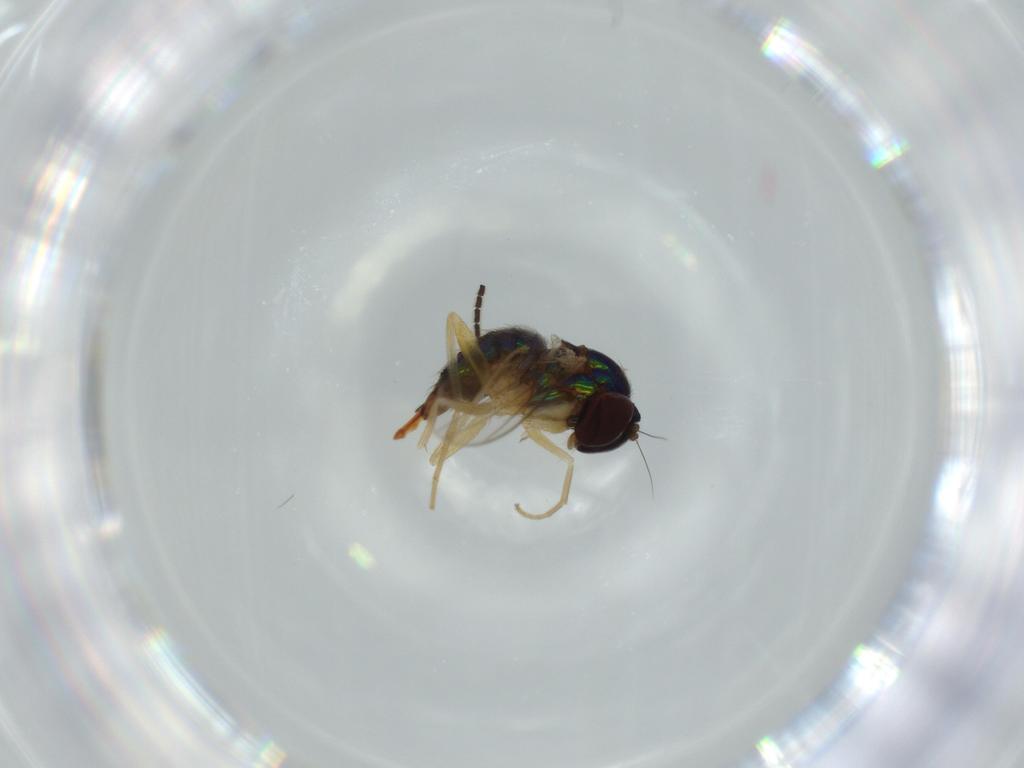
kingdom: Animalia
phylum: Arthropoda
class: Insecta
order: Diptera
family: Dolichopodidae
